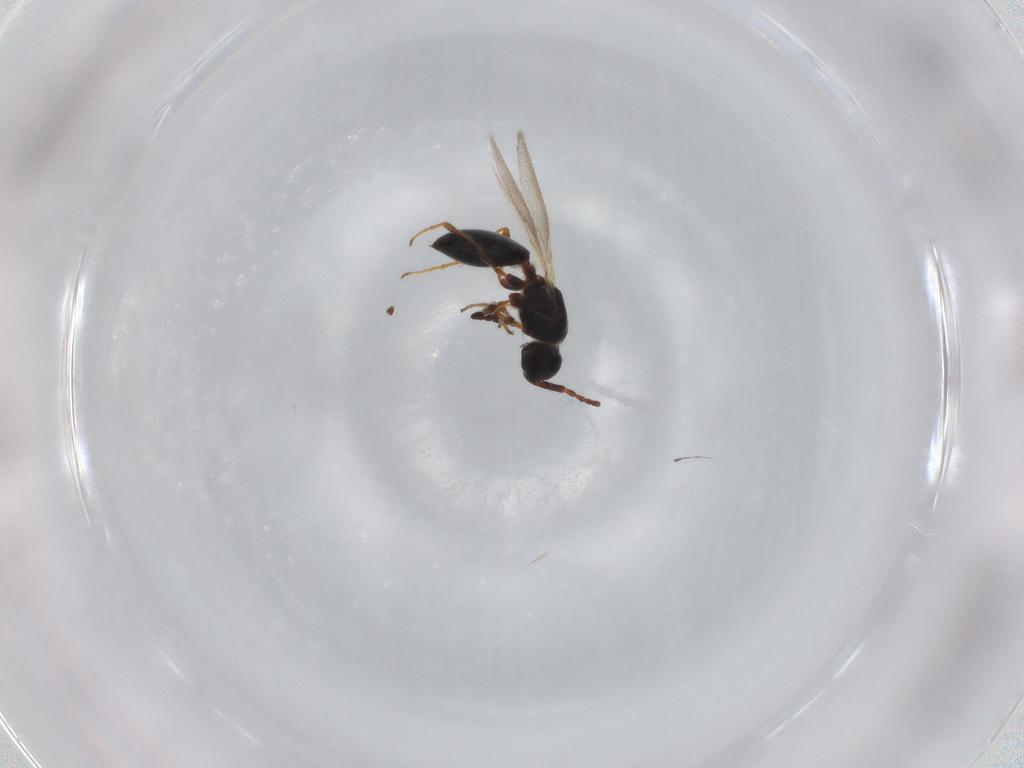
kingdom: Animalia
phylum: Arthropoda
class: Insecta
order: Hymenoptera
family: Diapriidae
